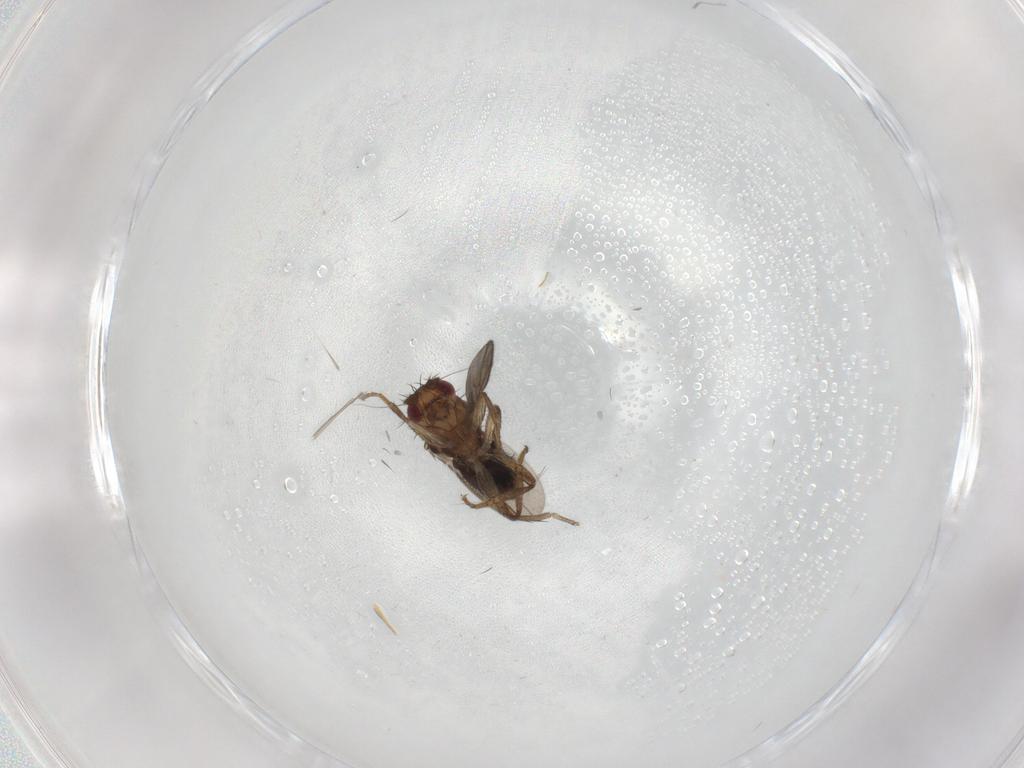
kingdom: Animalia
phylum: Arthropoda
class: Insecta
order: Diptera
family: Sphaeroceridae
